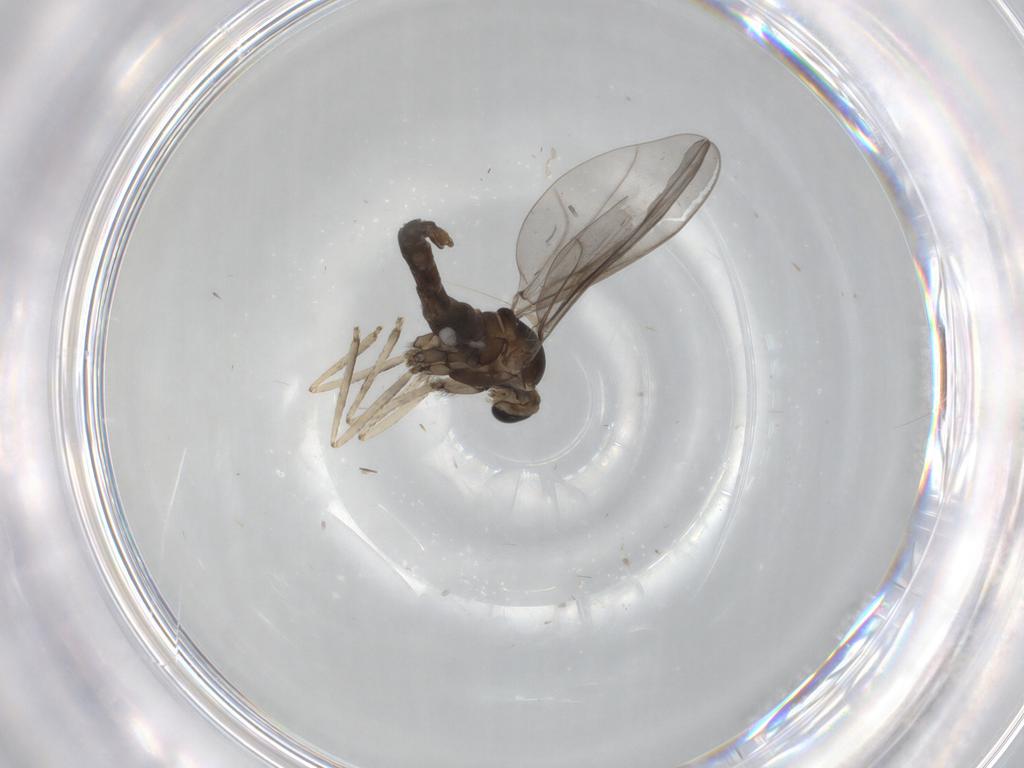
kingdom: Animalia
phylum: Arthropoda
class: Insecta
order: Diptera
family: Cecidomyiidae
